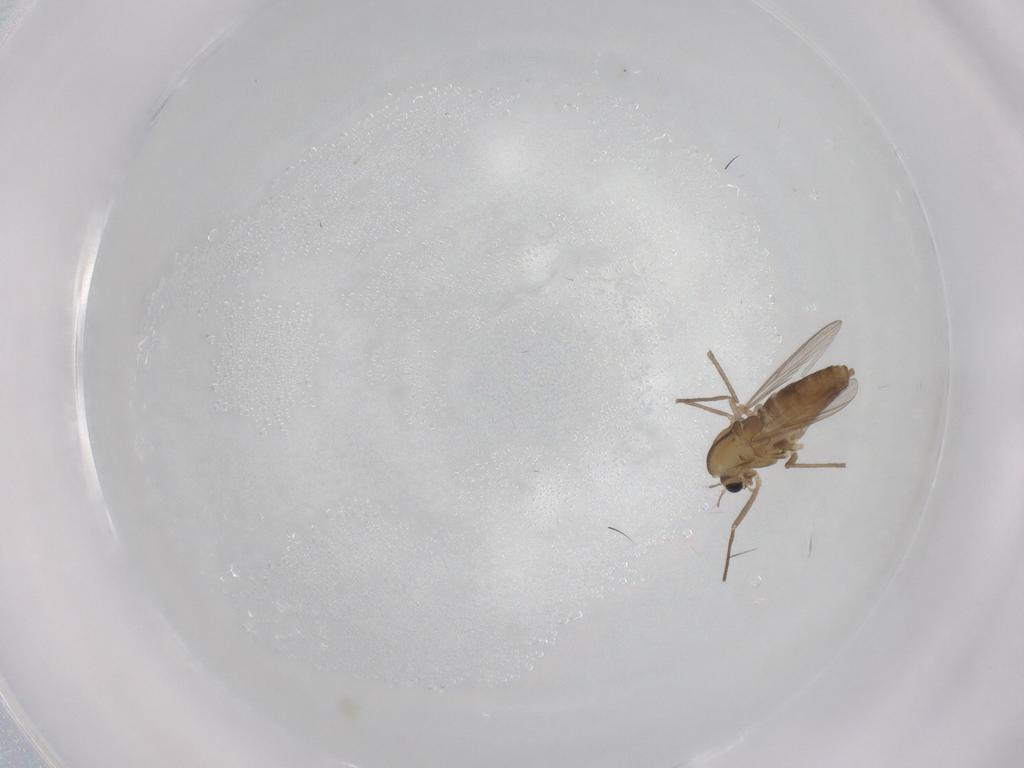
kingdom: Animalia
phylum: Arthropoda
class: Insecta
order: Diptera
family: Chironomidae
